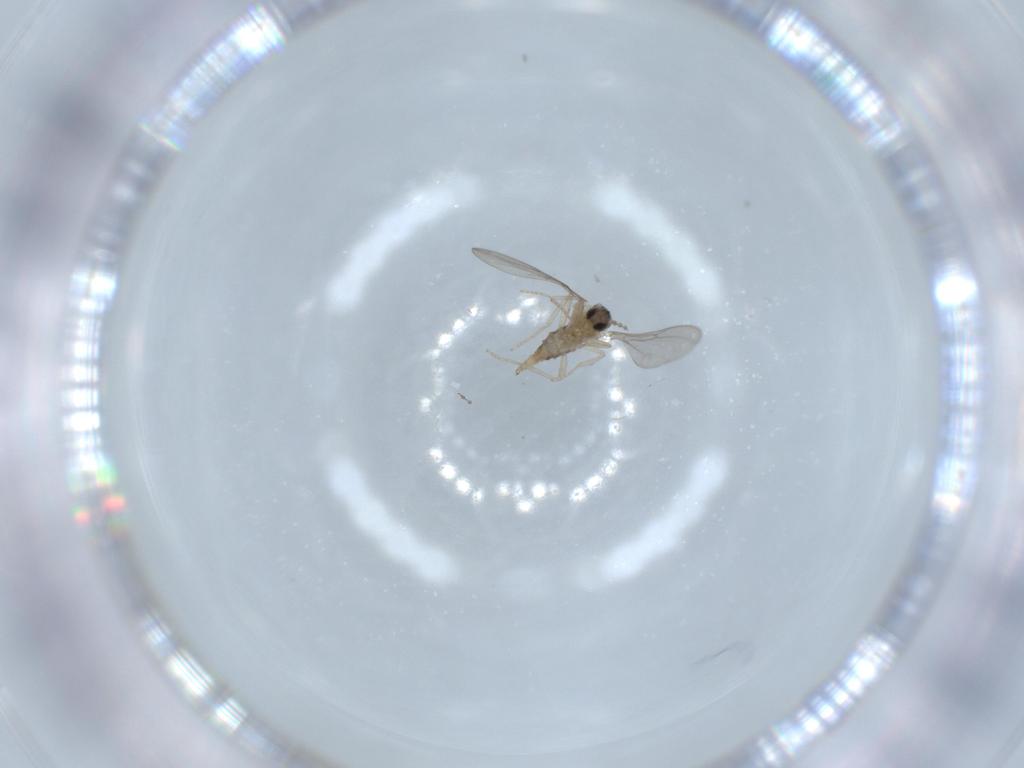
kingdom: Animalia
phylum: Arthropoda
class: Insecta
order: Diptera
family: Cecidomyiidae
